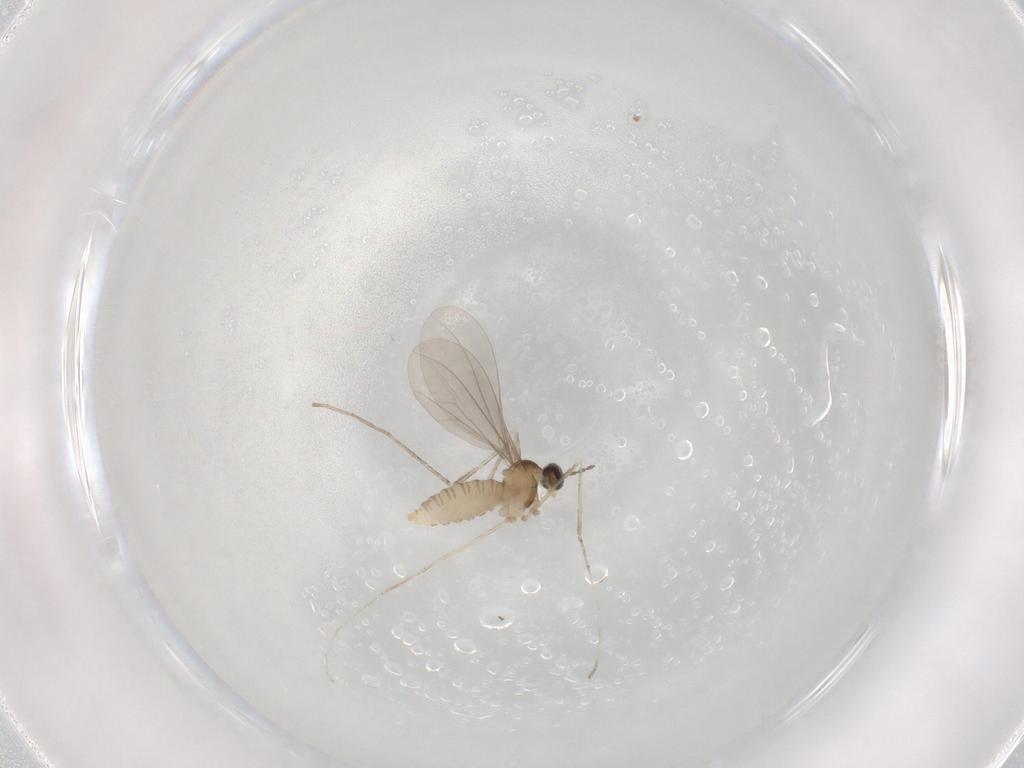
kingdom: Animalia
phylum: Arthropoda
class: Insecta
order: Diptera
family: Cecidomyiidae
